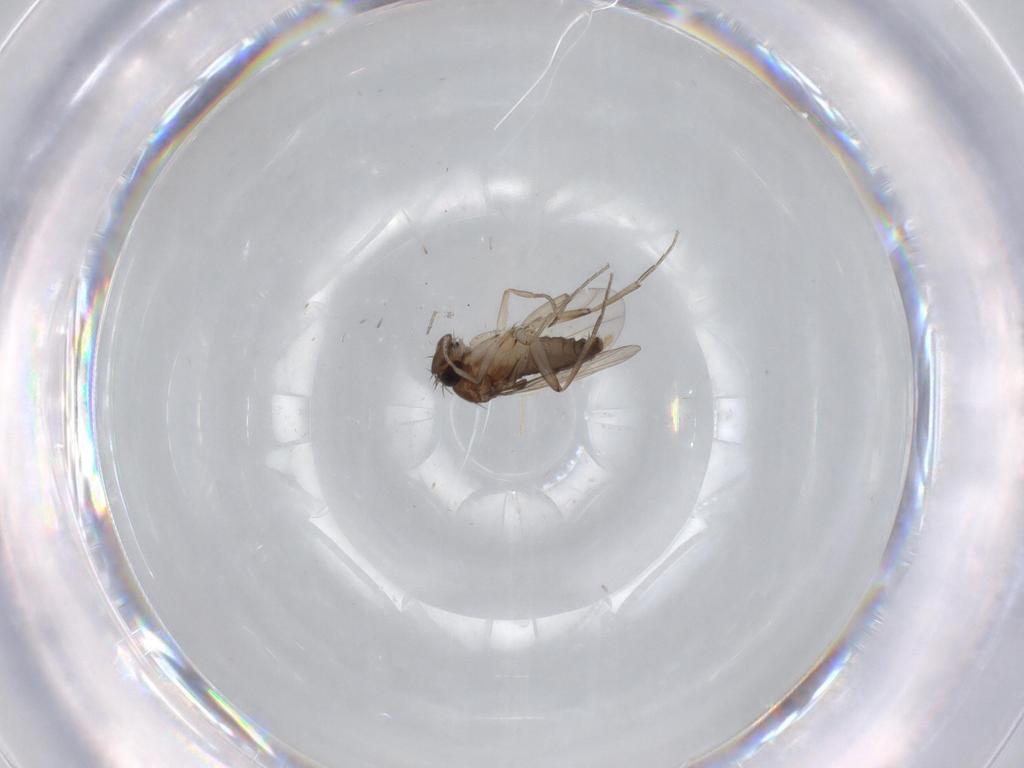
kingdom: Animalia
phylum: Arthropoda
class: Insecta
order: Diptera
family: Phoridae
